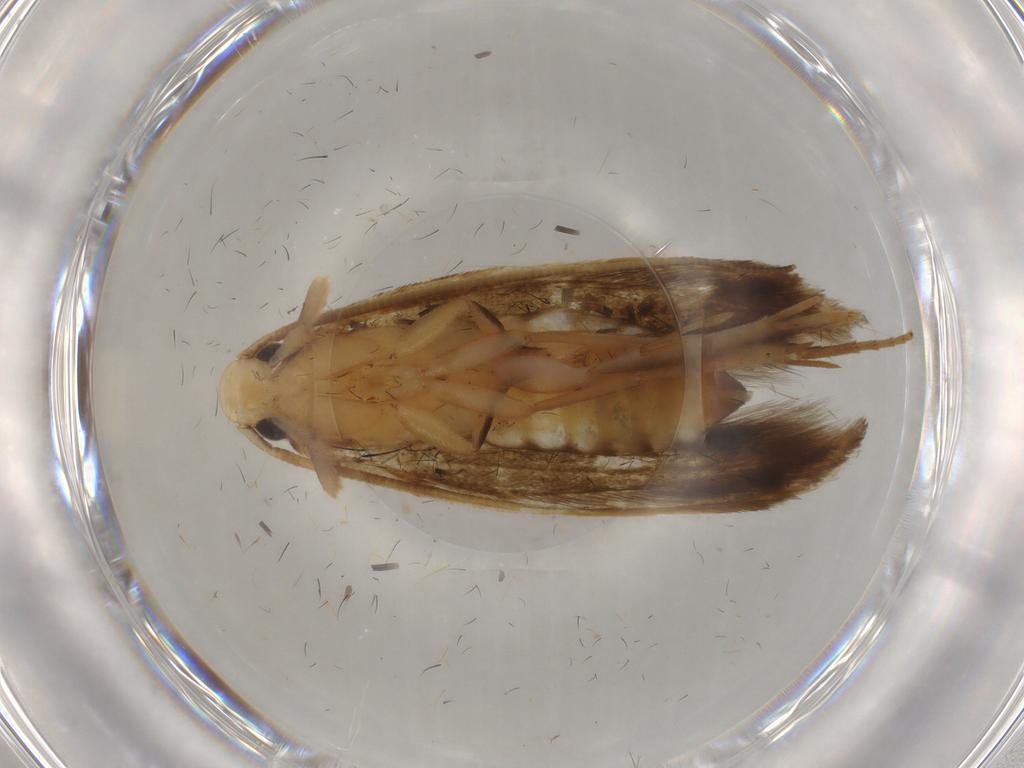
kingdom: Animalia
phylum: Arthropoda
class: Insecta
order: Lepidoptera
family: Tineidae
